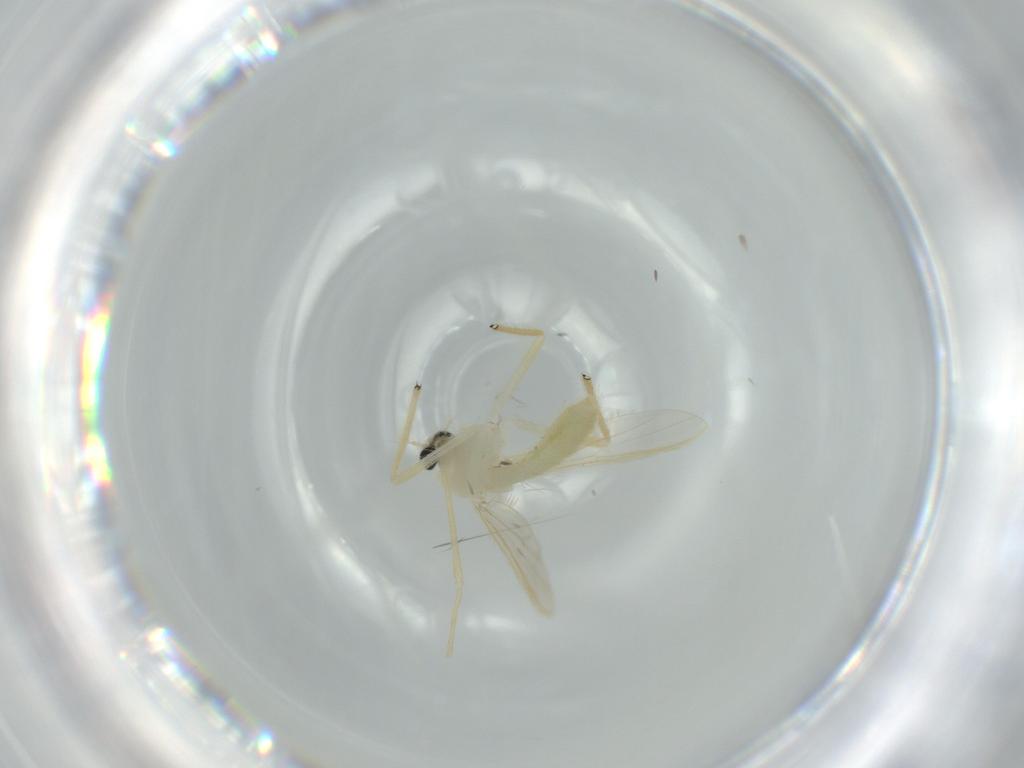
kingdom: Animalia
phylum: Arthropoda
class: Insecta
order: Diptera
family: Chironomidae
